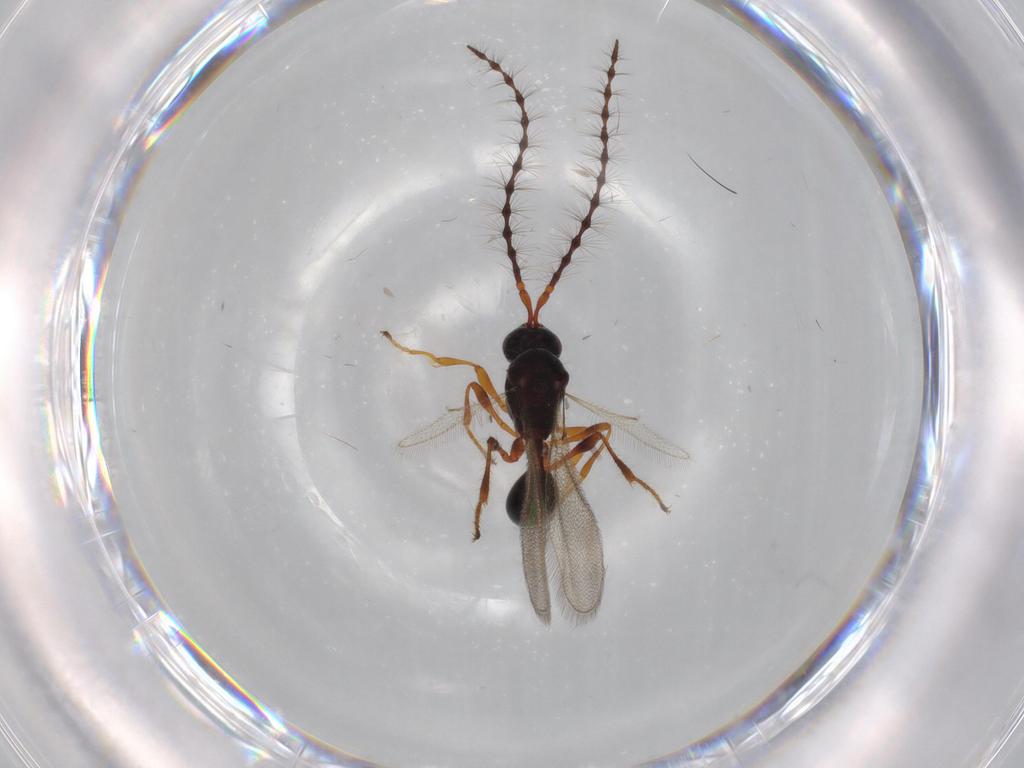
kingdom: Animalia
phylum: Arthropoda
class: Insecta
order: Hymenoptera
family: Diapriidae
